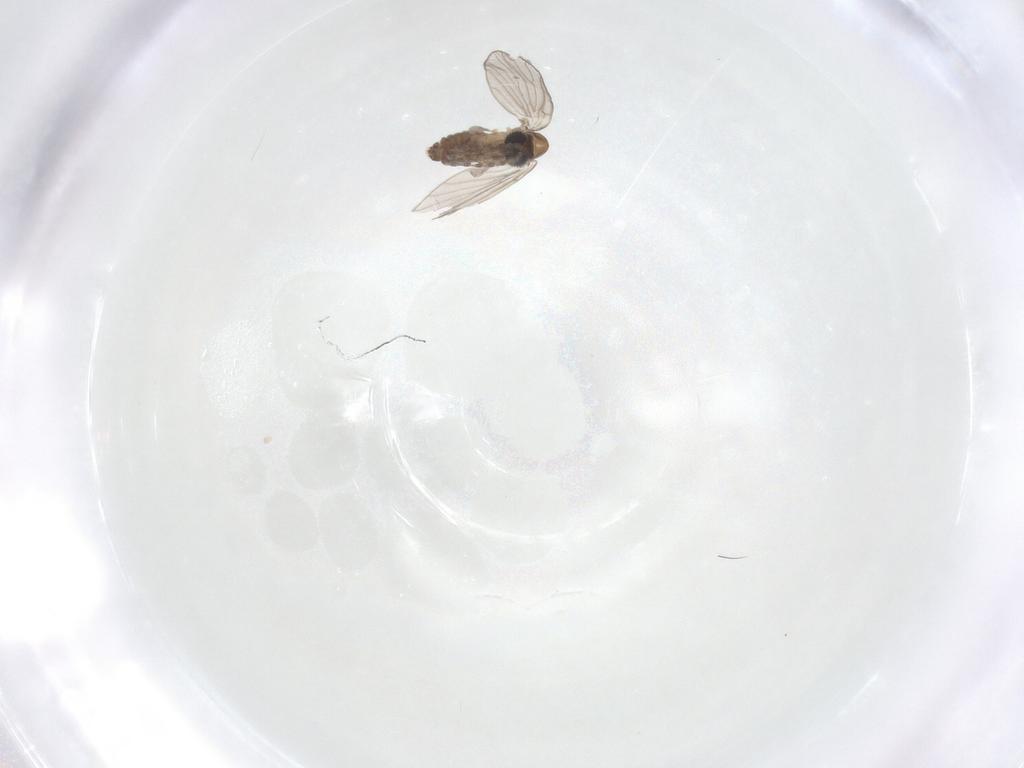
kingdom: Animalia
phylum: Arthropoda
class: Insecta
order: Diptera
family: Psychodidae
